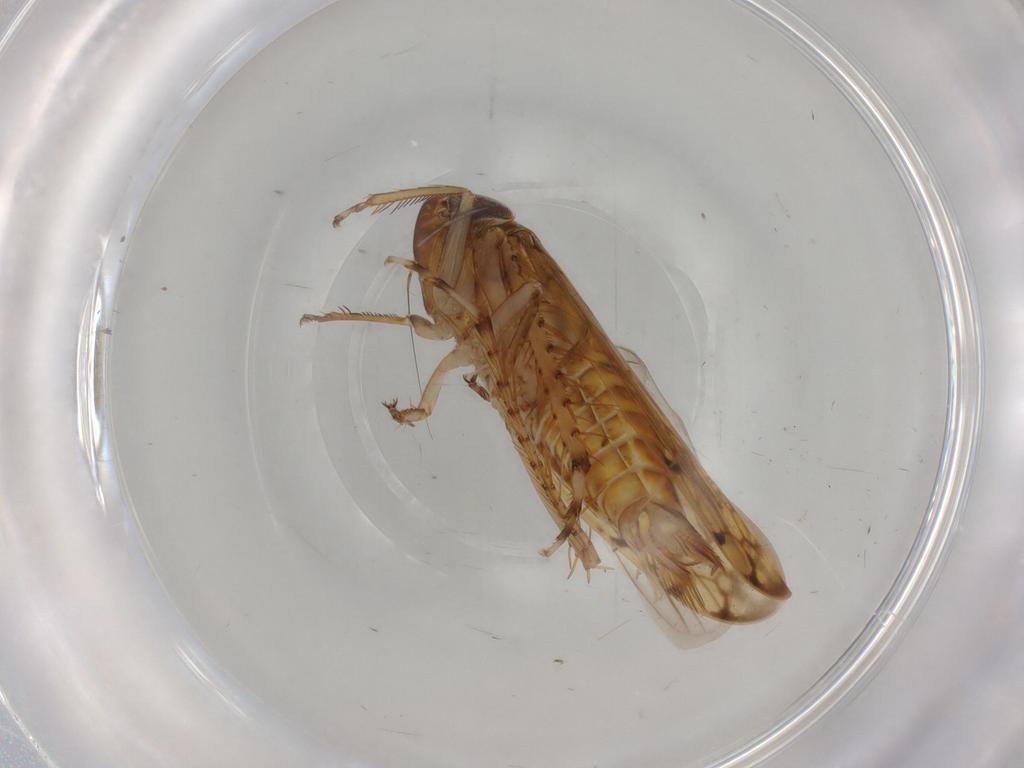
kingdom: Animalia
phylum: Arthropoda
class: Insecta
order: Hemiptera
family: Cicadellidae
